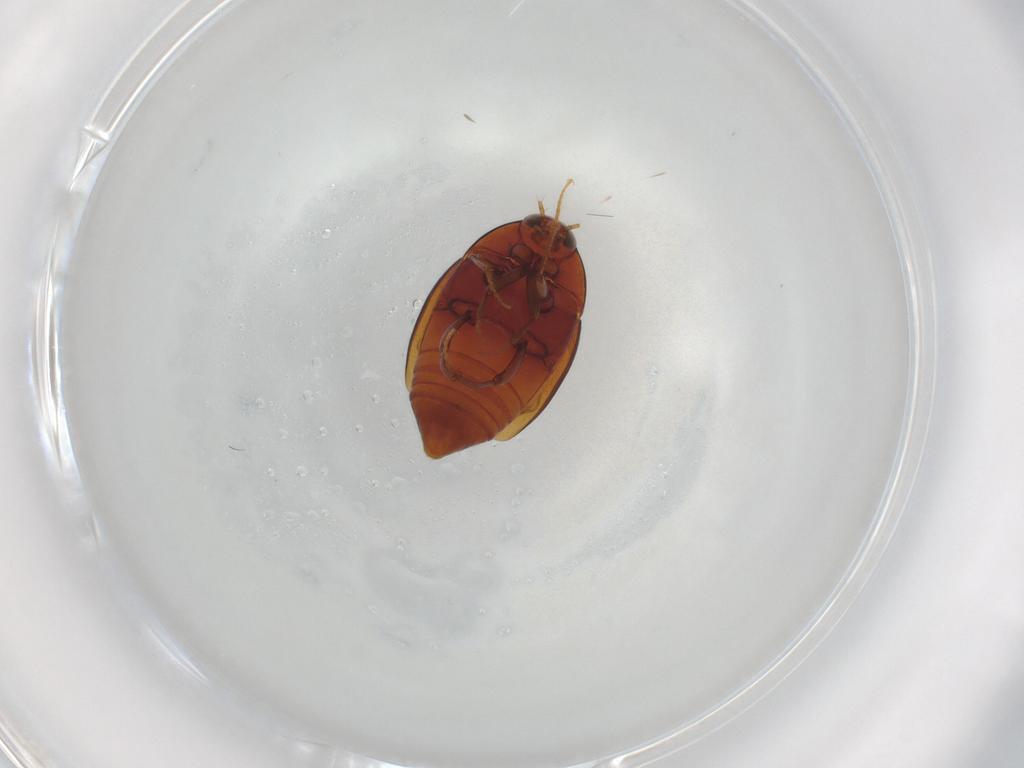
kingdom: Animalia
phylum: Arthropoda
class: Insecta
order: Coleoptera
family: Staphylinidae
